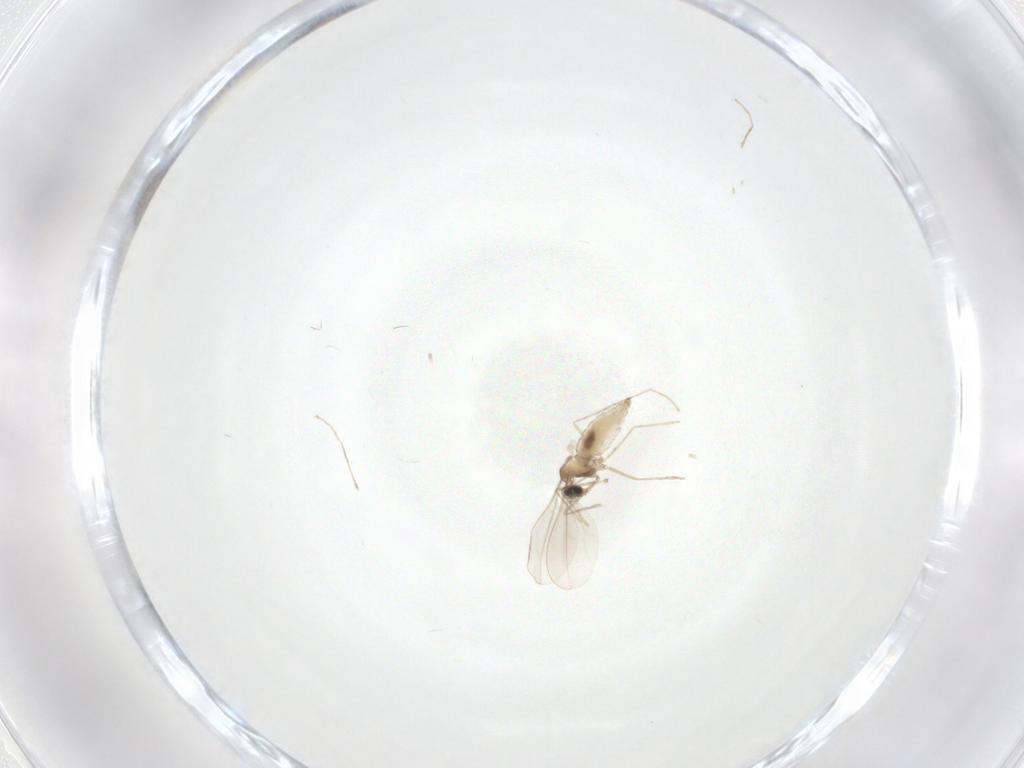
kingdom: Animalia
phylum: Arthropoda
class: Insecta
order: Diptera
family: Cecidomyiidae
